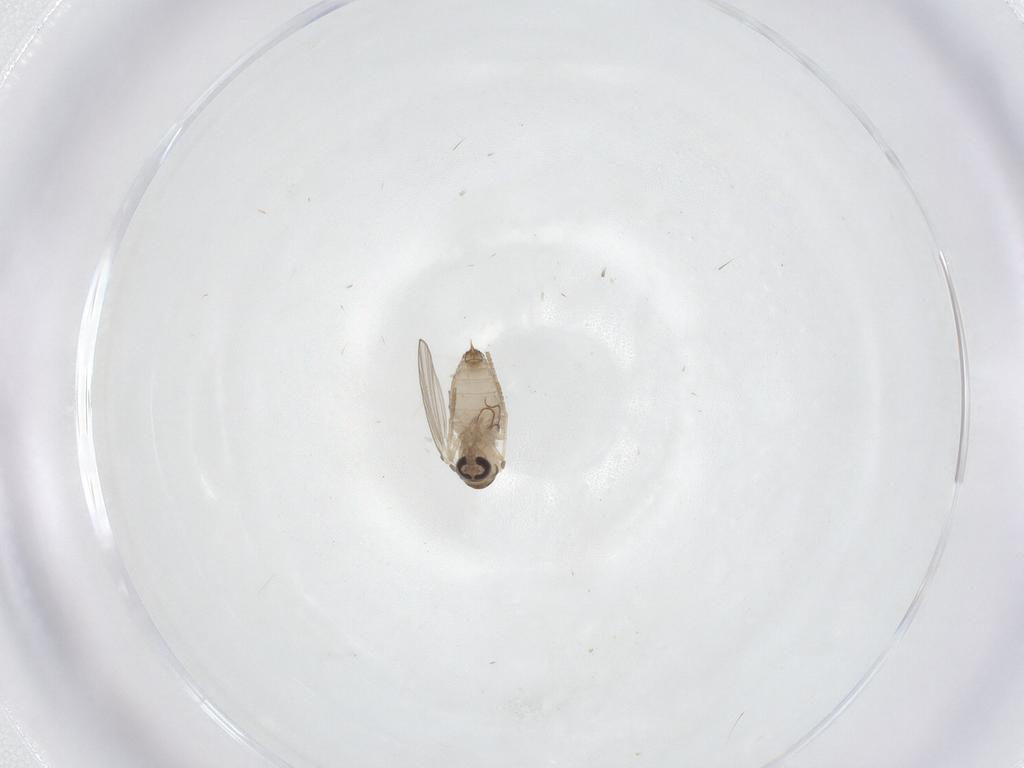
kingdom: Animalia
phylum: Arthropoda
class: Insecta
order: Diptera
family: Psychodidae
